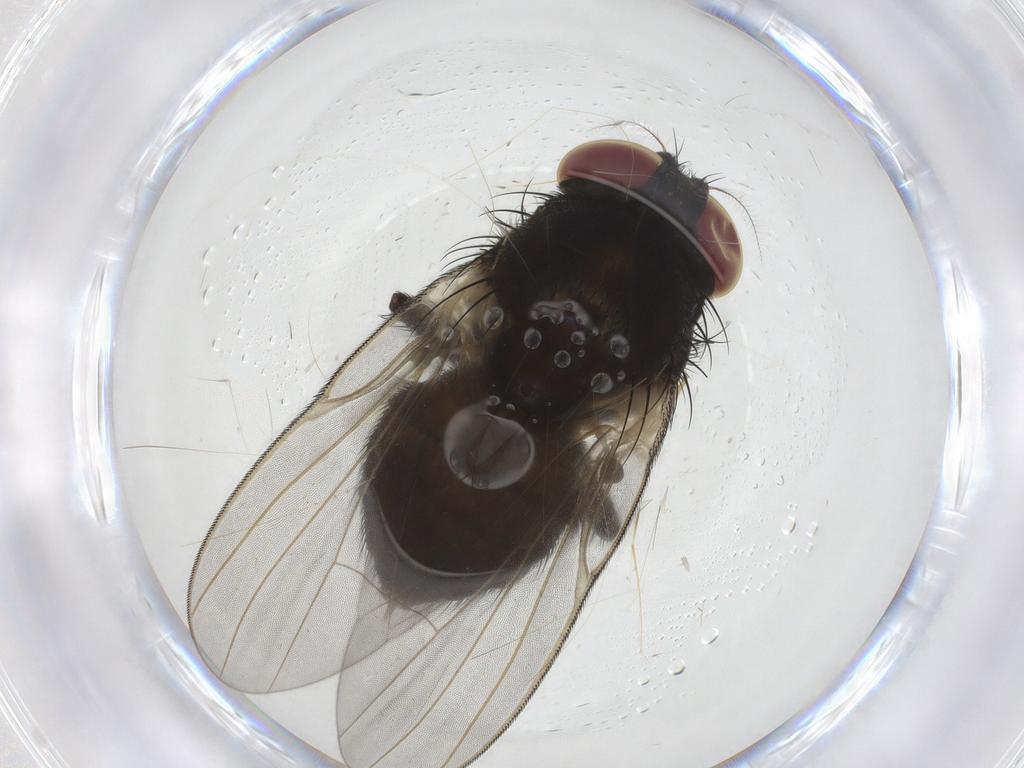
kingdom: Animalia
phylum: Arthropoda
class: Insecta
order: Diptera
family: Lonchaeidae
